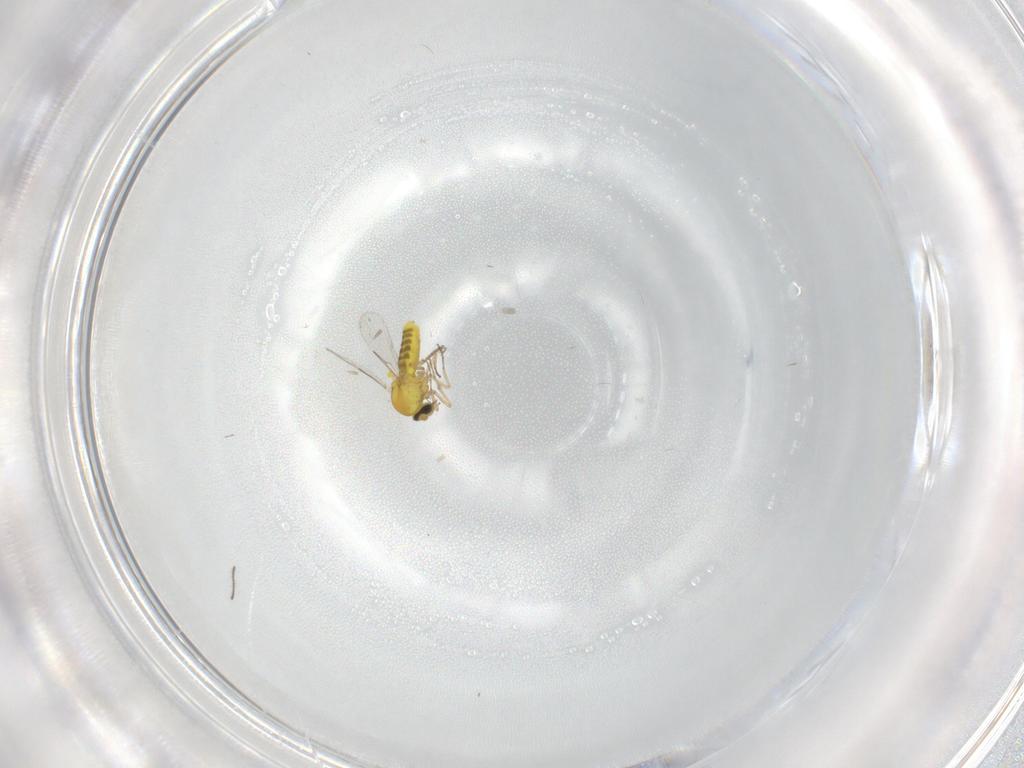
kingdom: Animalia
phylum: Arthropoda
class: Insecta
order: Diptera
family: Ceratopogonidae
